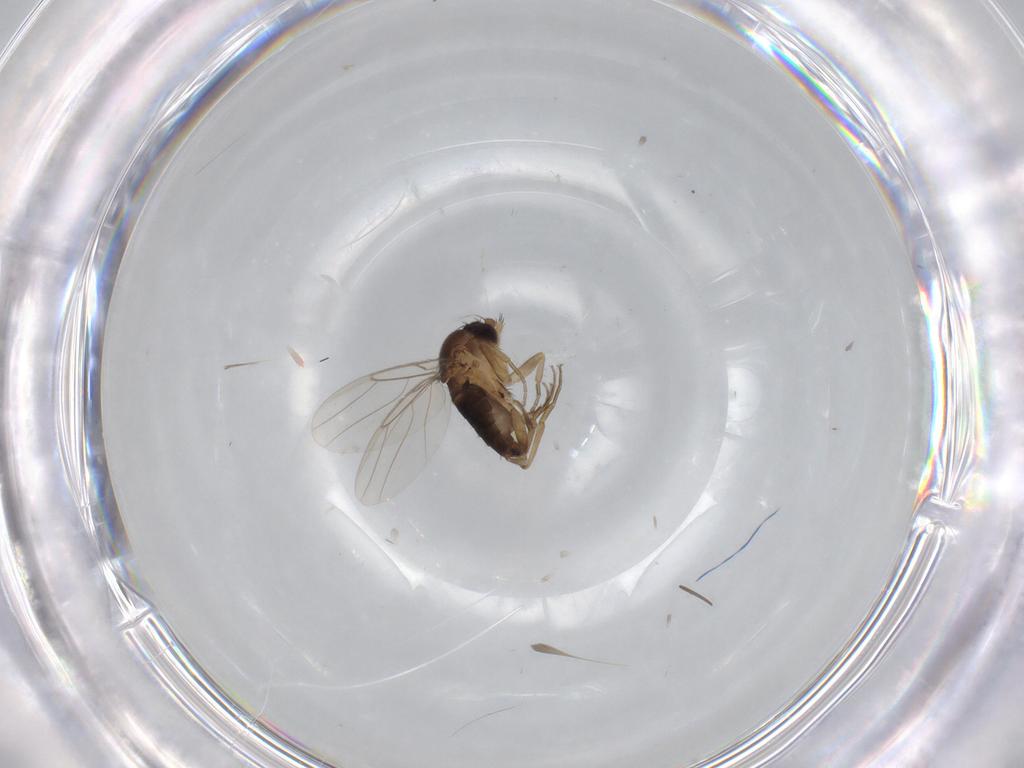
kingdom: Animalia
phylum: Arthropoda
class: Insecta
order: Diptera
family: Phoridae
